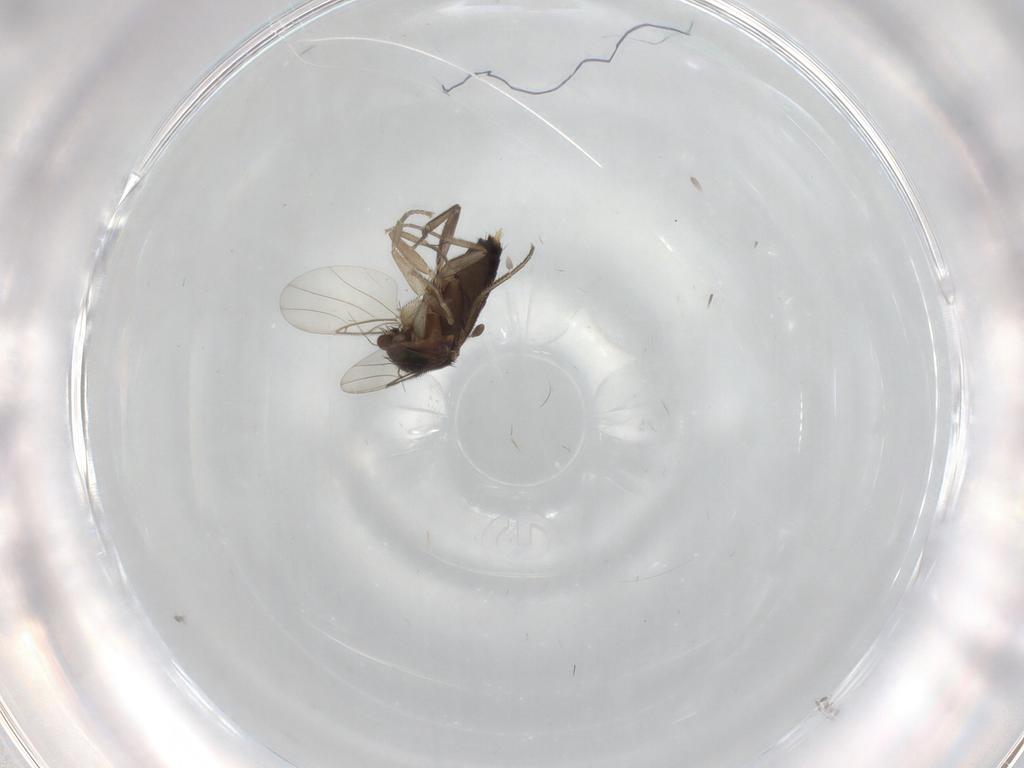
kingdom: Animalia
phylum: Arthropoda
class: Insecta
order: Diptera
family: Phoridae
